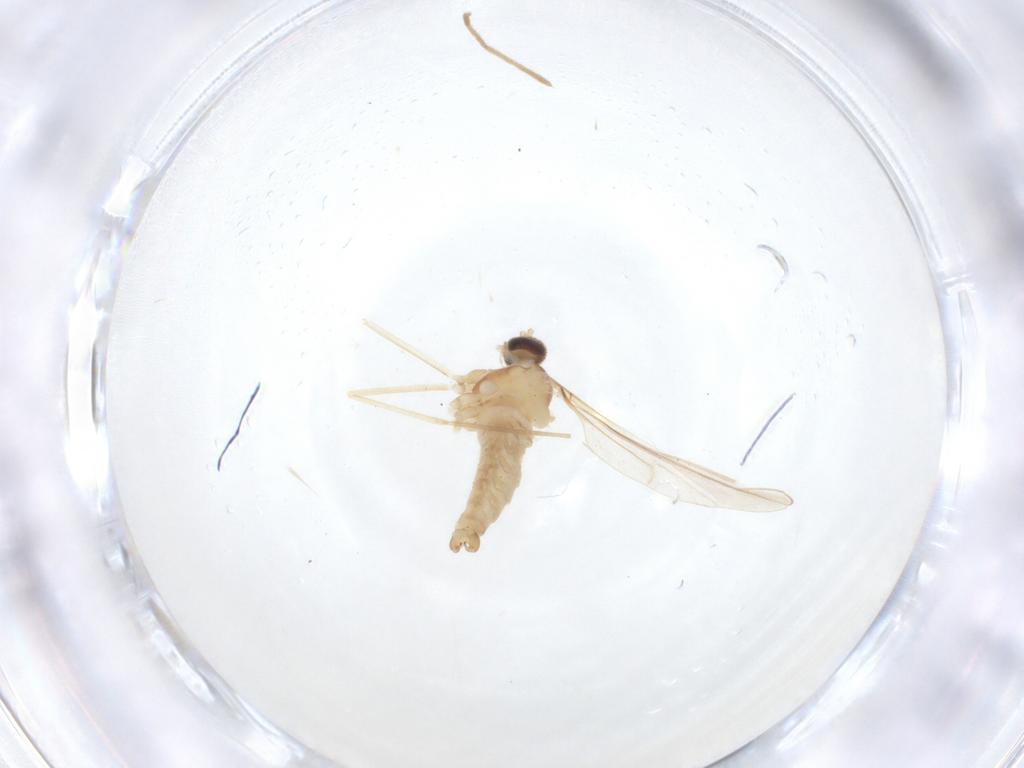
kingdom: Animalia
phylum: Arthropoda
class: Insecta
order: Diptera
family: Cecidomyiidae
